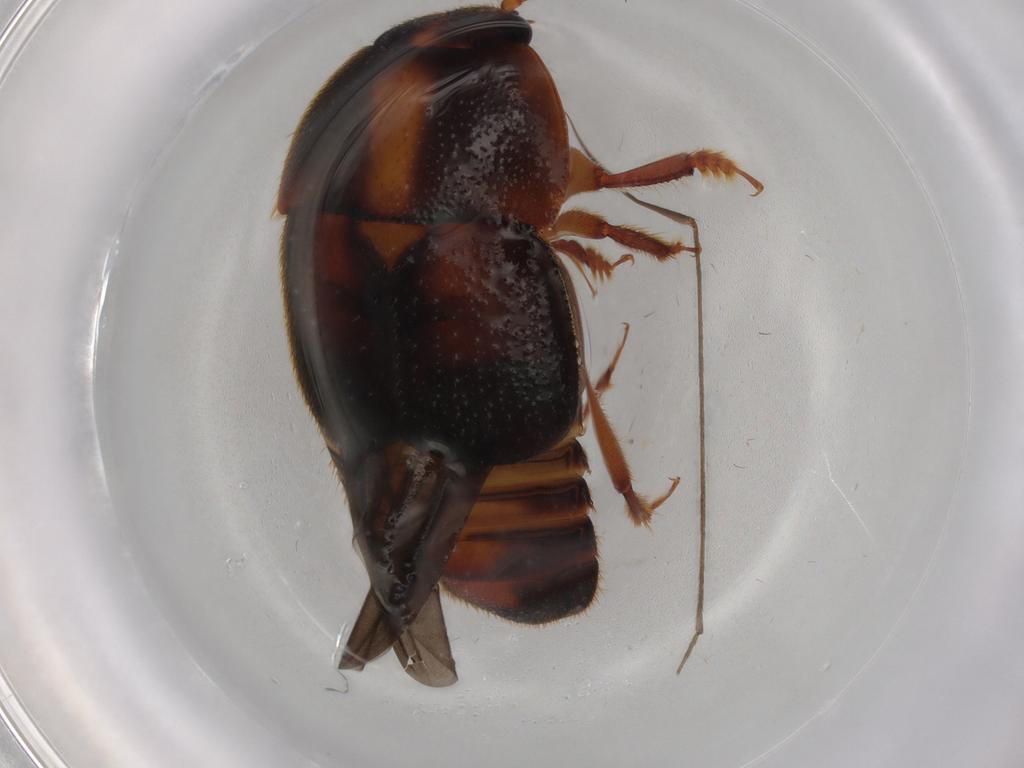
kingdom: Animalia
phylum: Arthropoda
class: Insecta
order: Coleoptera
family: Nitidulidae
